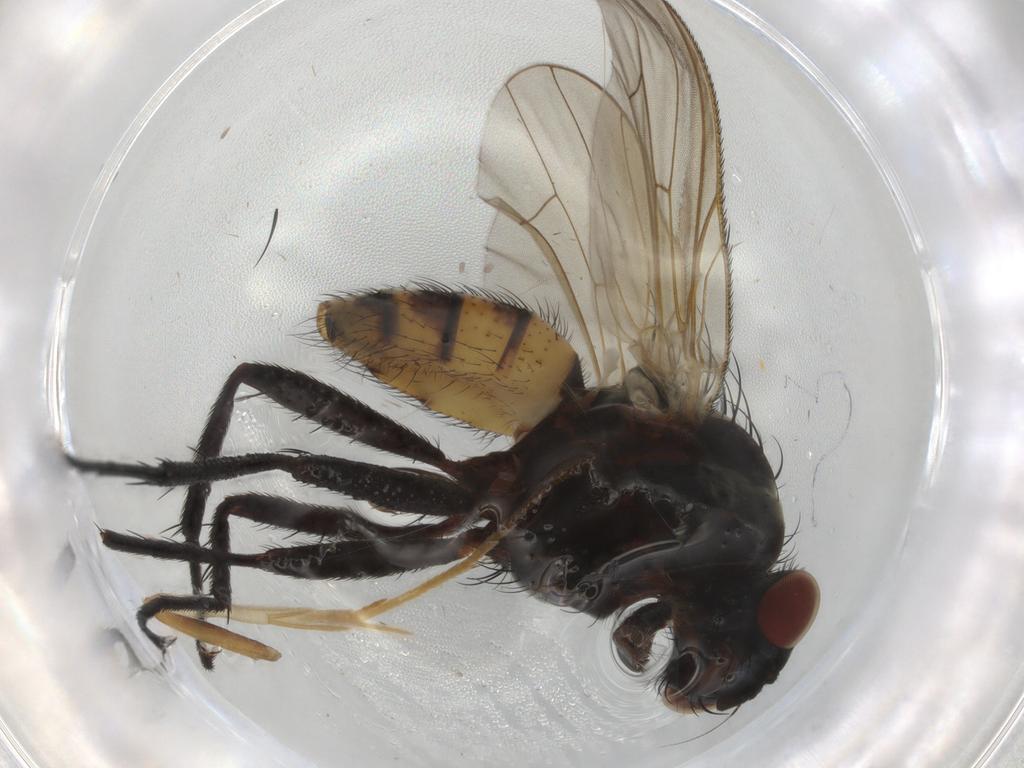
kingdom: Animalia
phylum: Arthropoda
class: Insecta
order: Diptera
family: Anthomyiidae
